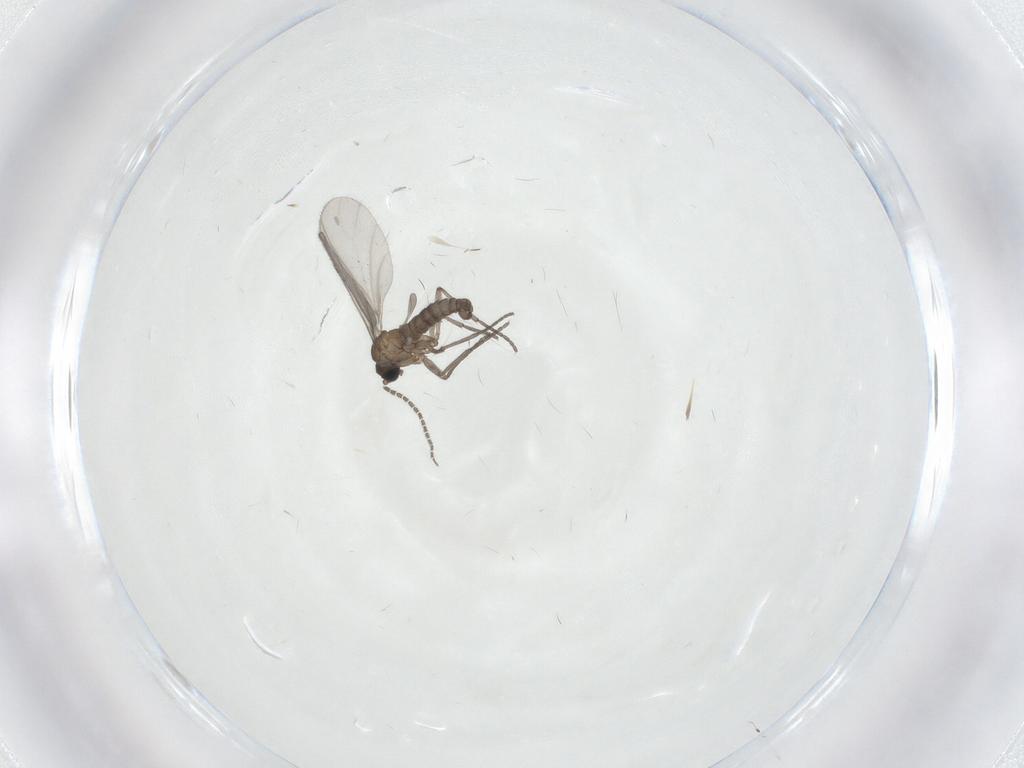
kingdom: Animalia
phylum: Arthropoda
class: Insecta
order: Diptera
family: Sciaridae
